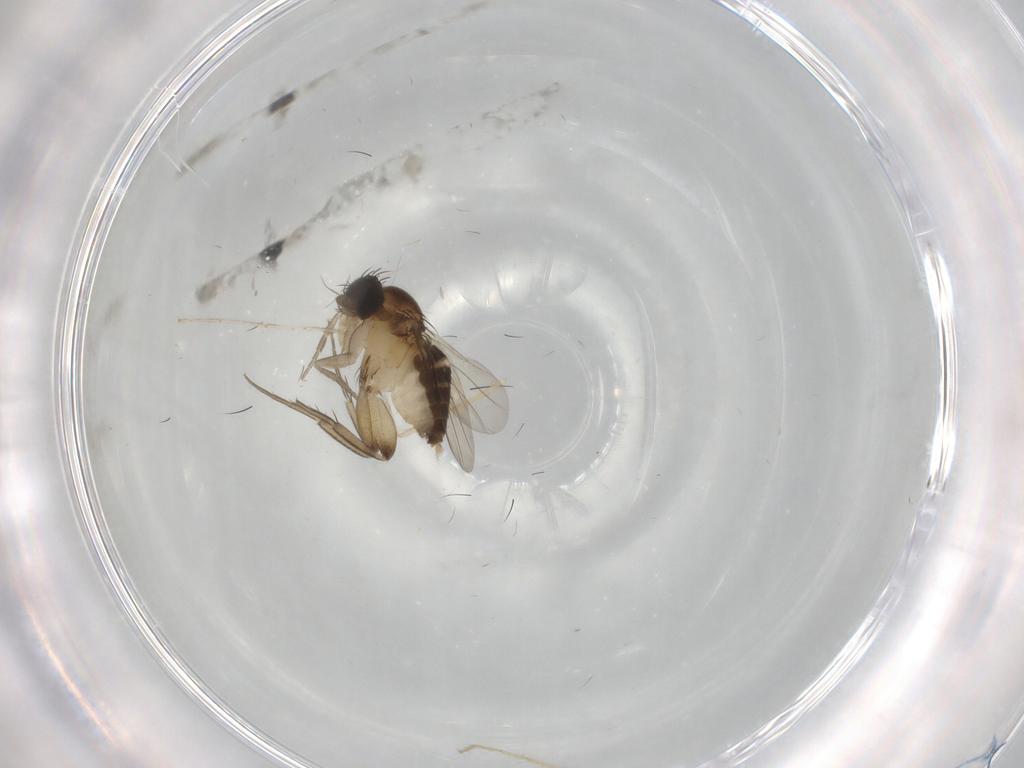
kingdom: Animalia
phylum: Arthropoda
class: Insecta
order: Diptera
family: Phoridae
